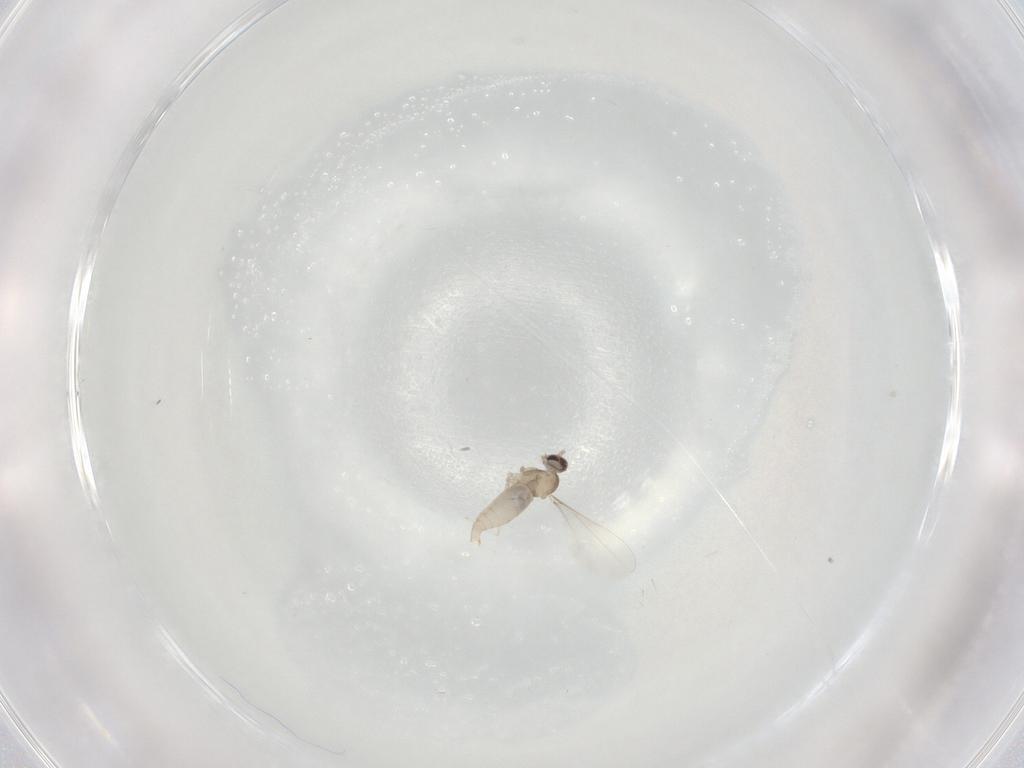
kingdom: Animalia
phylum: Arthropoda
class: Insecta
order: Diptera
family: Cecidomyiidae
